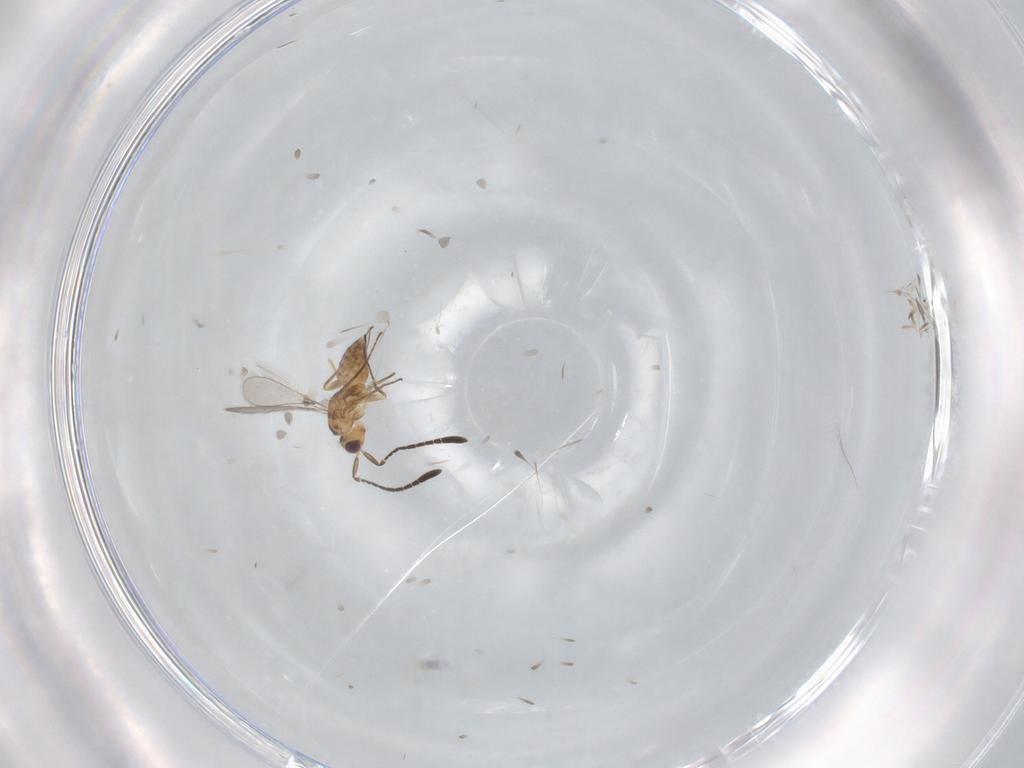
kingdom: Animalia
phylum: Arthropoda
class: Insecta
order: Hymenoptera
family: Mymaridae
